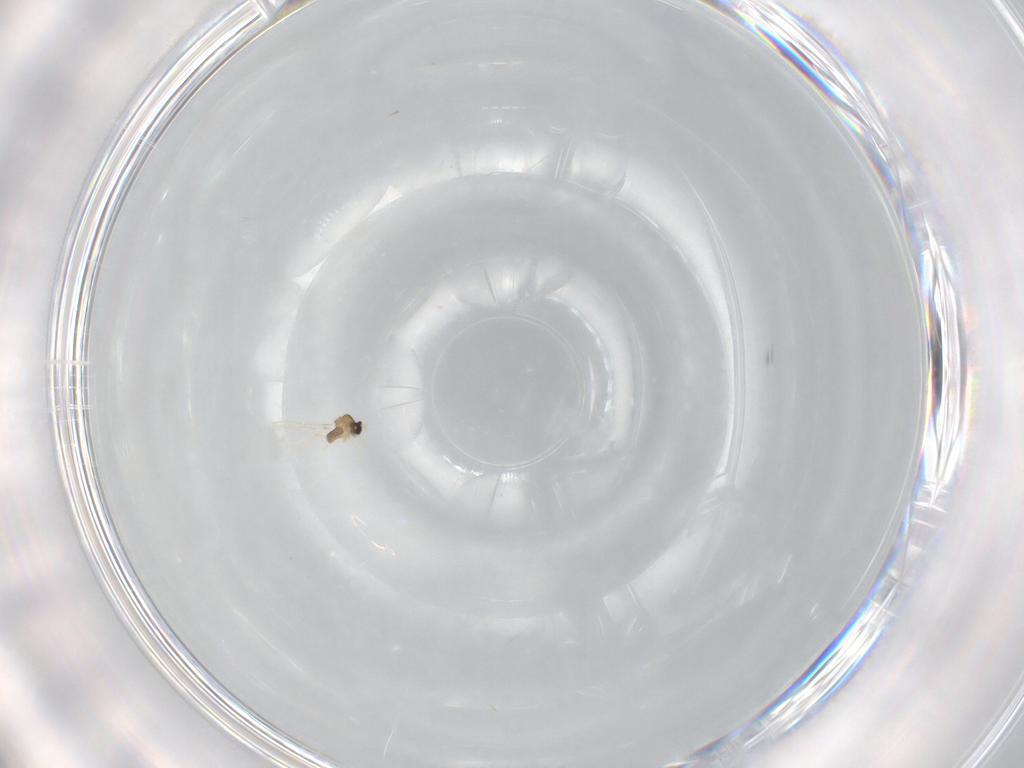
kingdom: Animalia
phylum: Arthropoda
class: Insecta
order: Diptera
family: Cecidomyiidae
